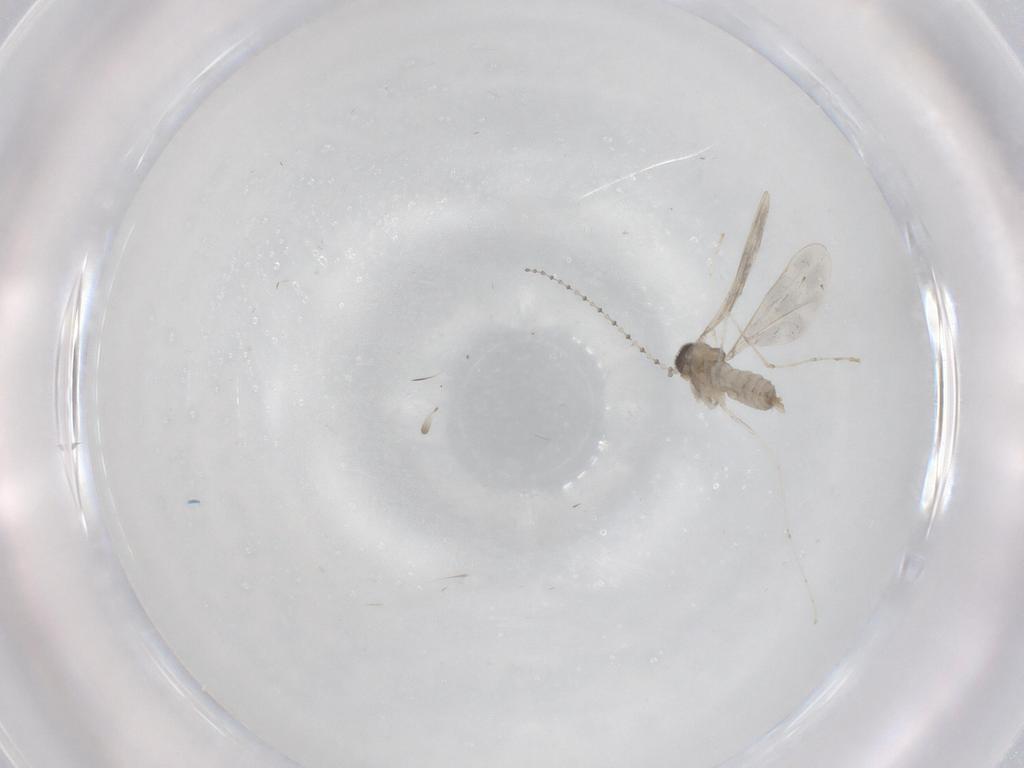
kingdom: Animalia
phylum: Arthropoda
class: Insecta
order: Diptera
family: Cecidomyiidae
